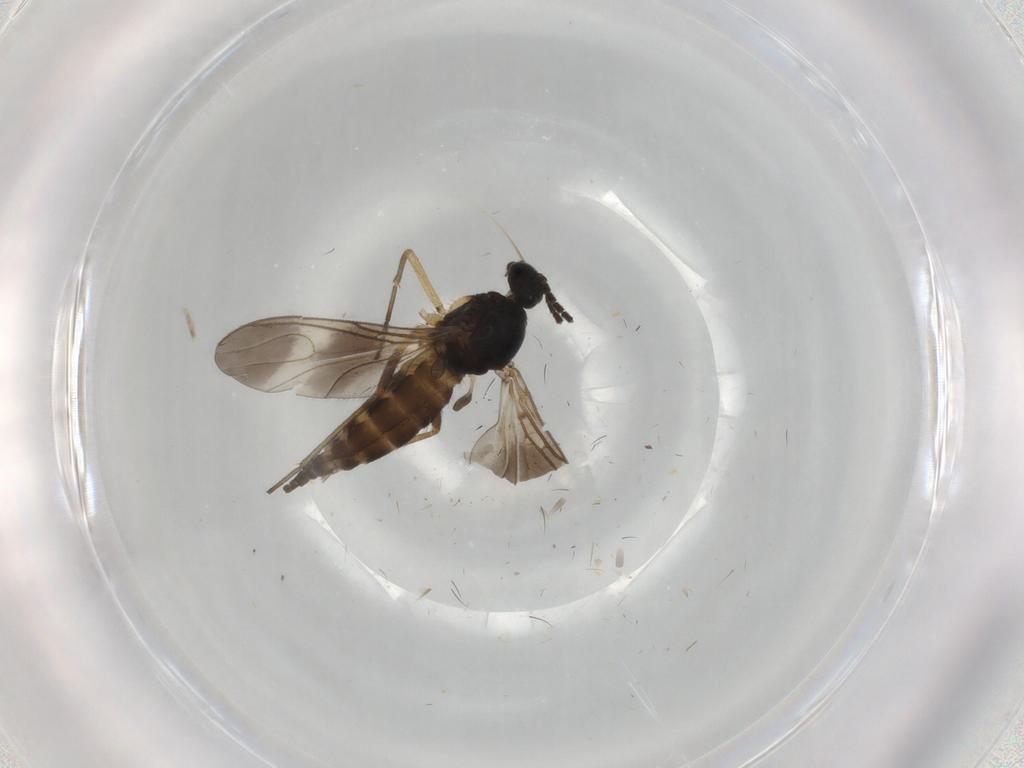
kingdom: Animalia
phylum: Arthropoda
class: Insecta
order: Diptera
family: Sciaridae
